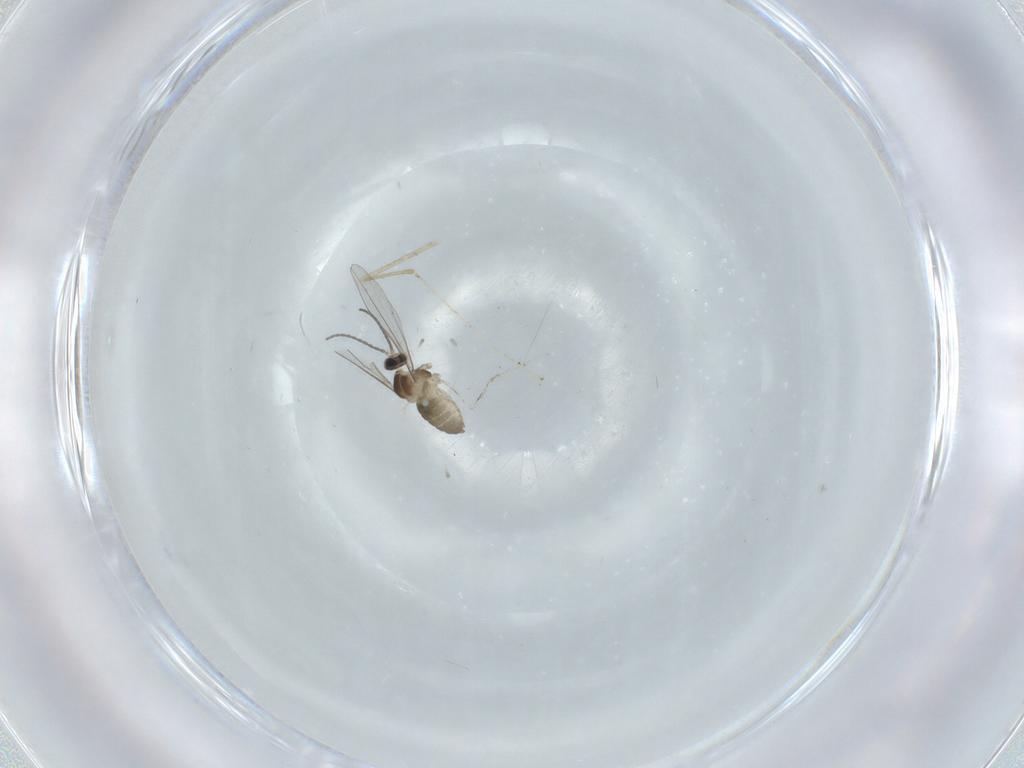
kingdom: Animalia
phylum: Arthropoda
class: Insecta
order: Diptera
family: Cecidomyiidae
